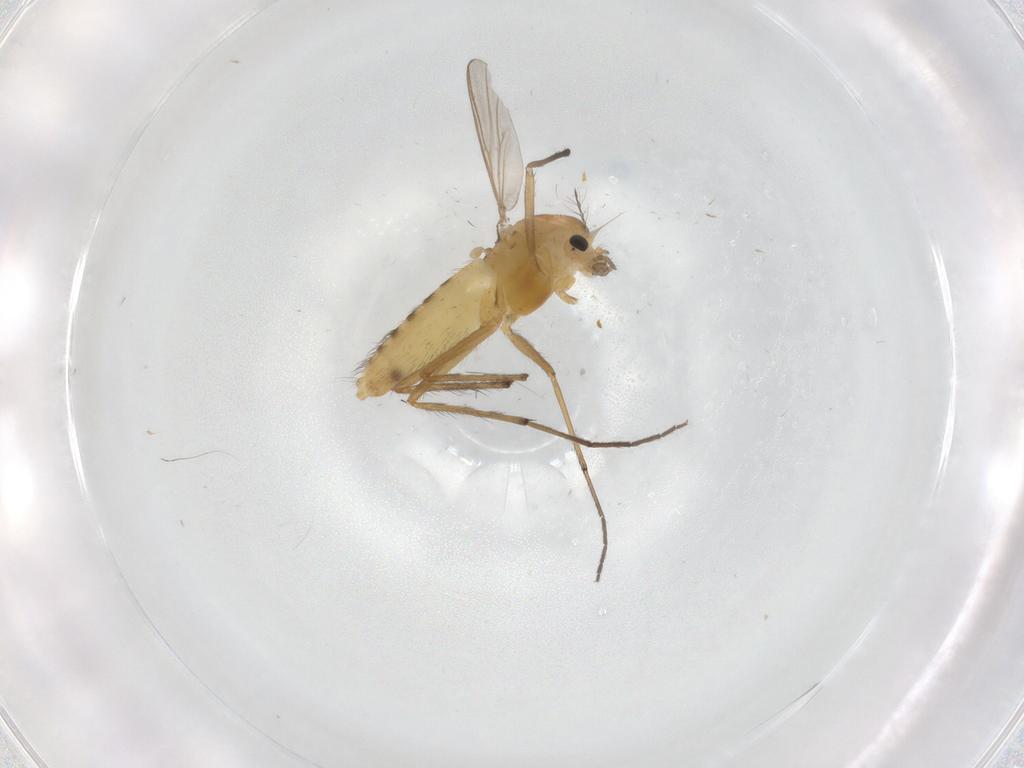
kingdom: Animalia
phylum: Arthropoda
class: Insecta
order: Diptera
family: Chironomidae
